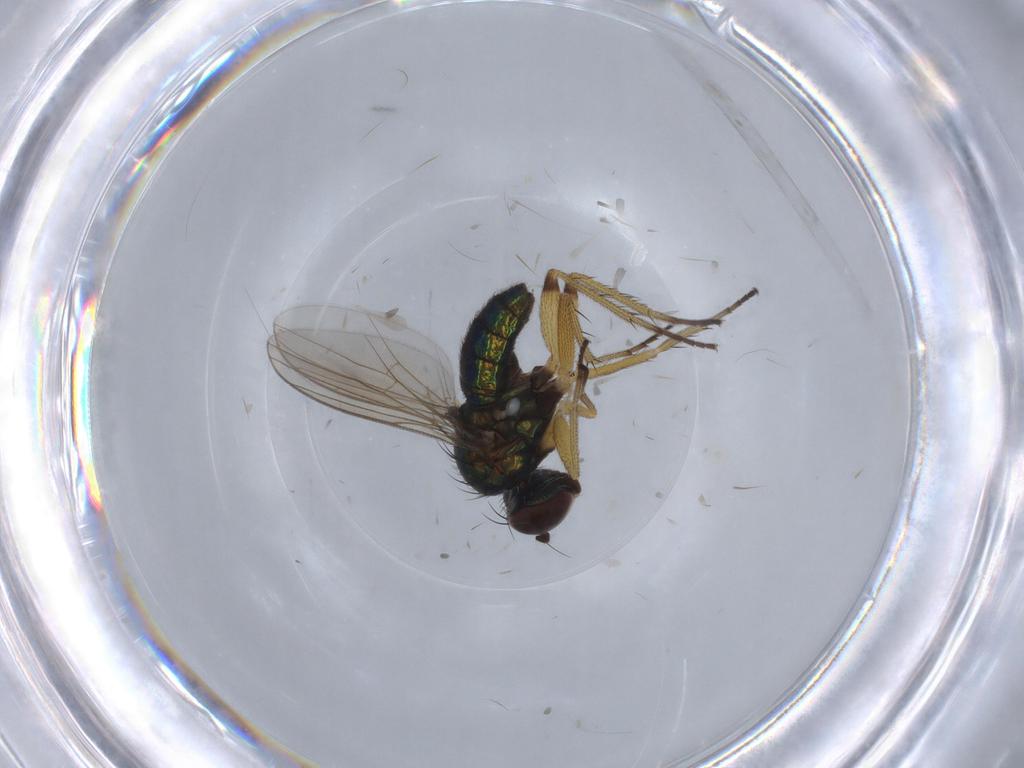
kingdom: Animalia
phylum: Arthropoda
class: Insecta
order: Diptera
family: Dolichopodidae
